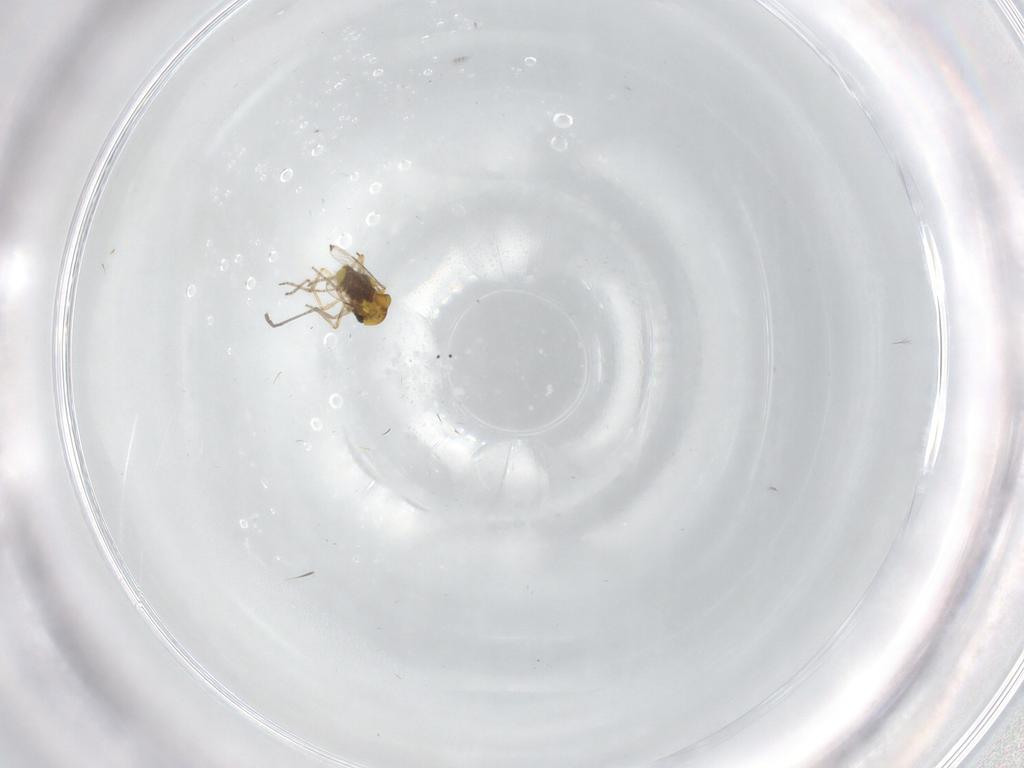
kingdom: Animalia
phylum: Arthropoda
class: Insecta
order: Diptera
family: Cecidomyiidae
